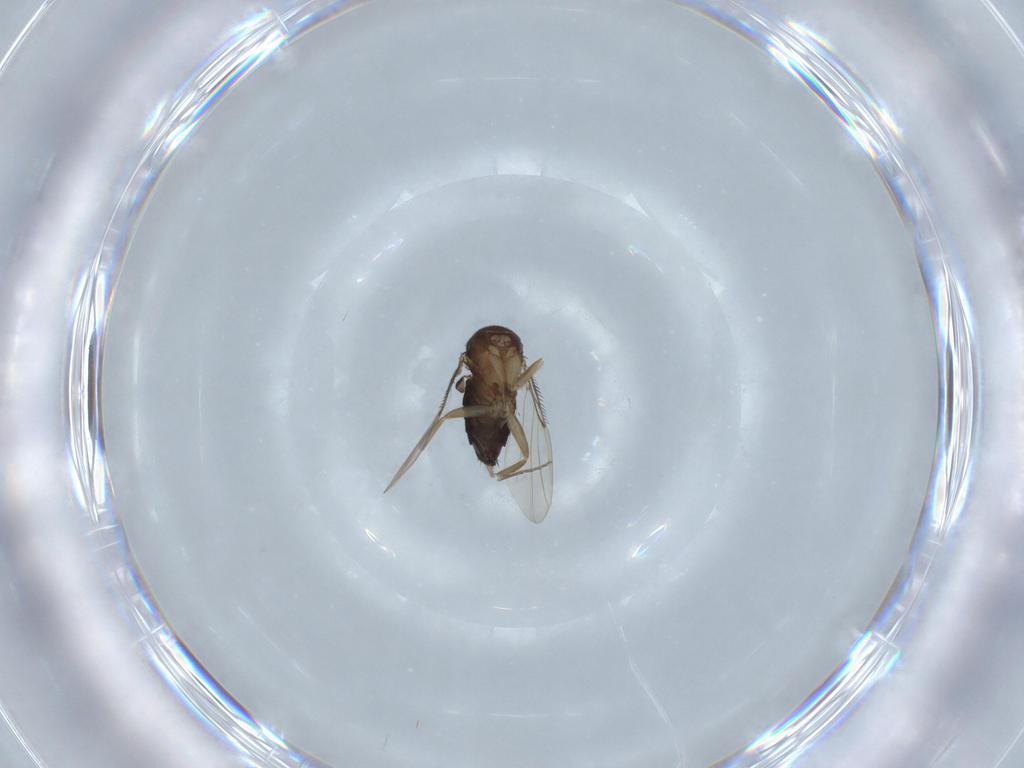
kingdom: Animalia
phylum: Arthropoda
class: Insecta
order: Diptera
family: Phoridae
